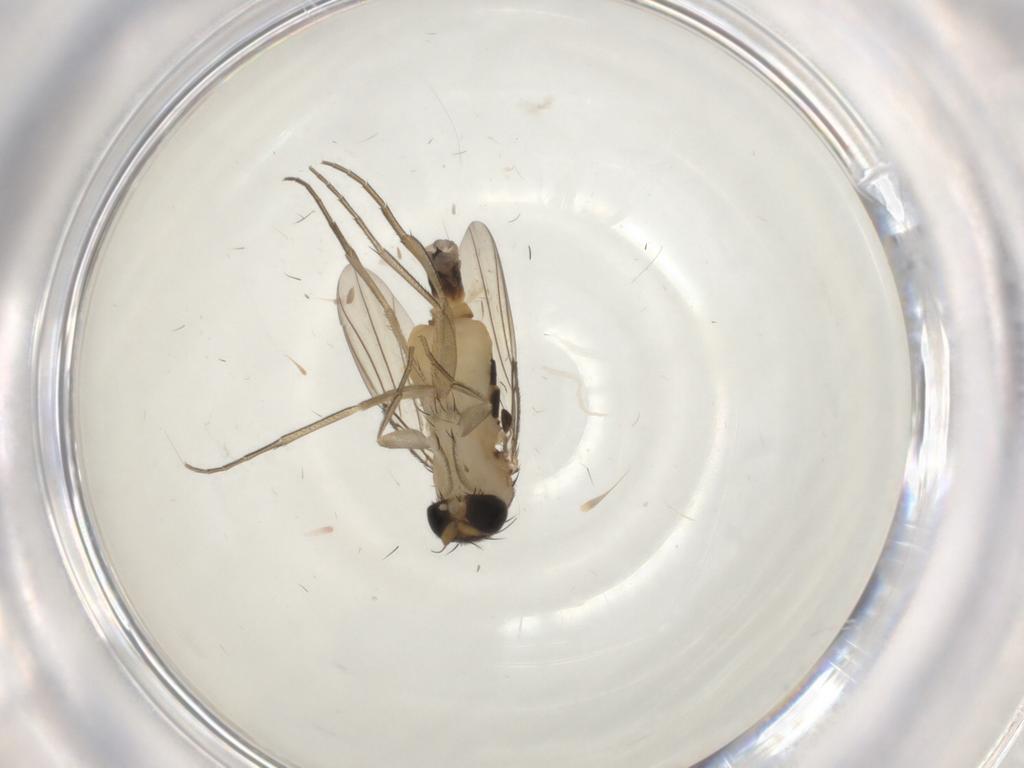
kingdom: Animalia
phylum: Arthropoda
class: Insecta
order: Diptera
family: Phoridae
